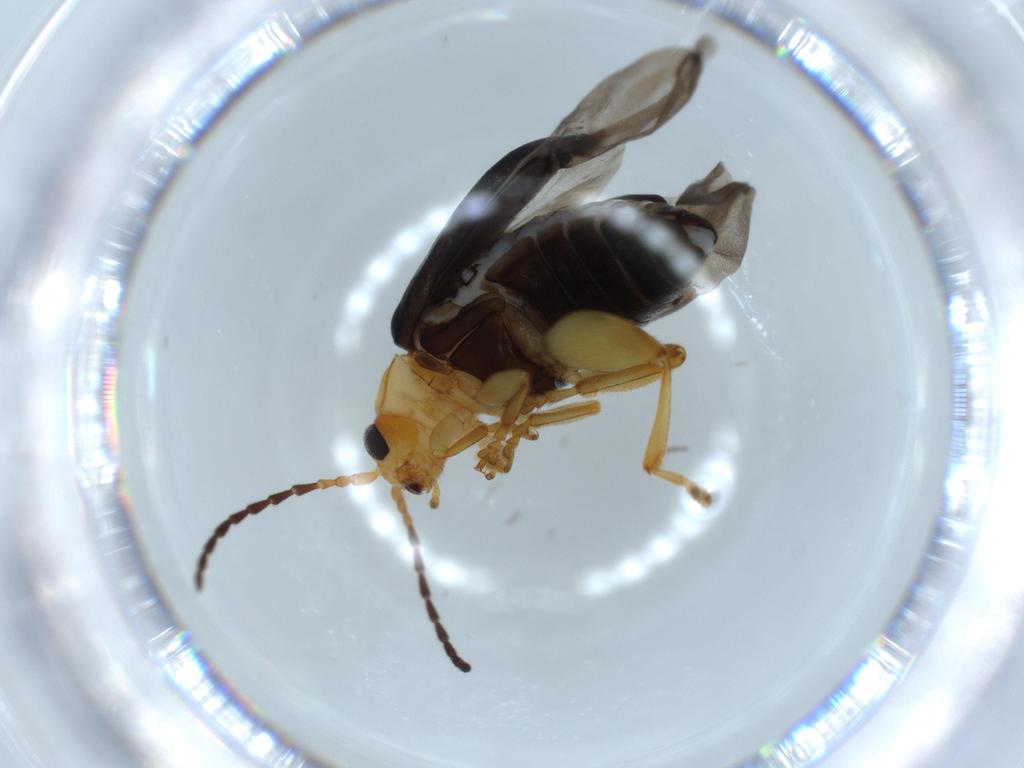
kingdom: Animalia
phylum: Arthropoda
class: Insecta
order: Coleoptera
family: Chrysomelidae
